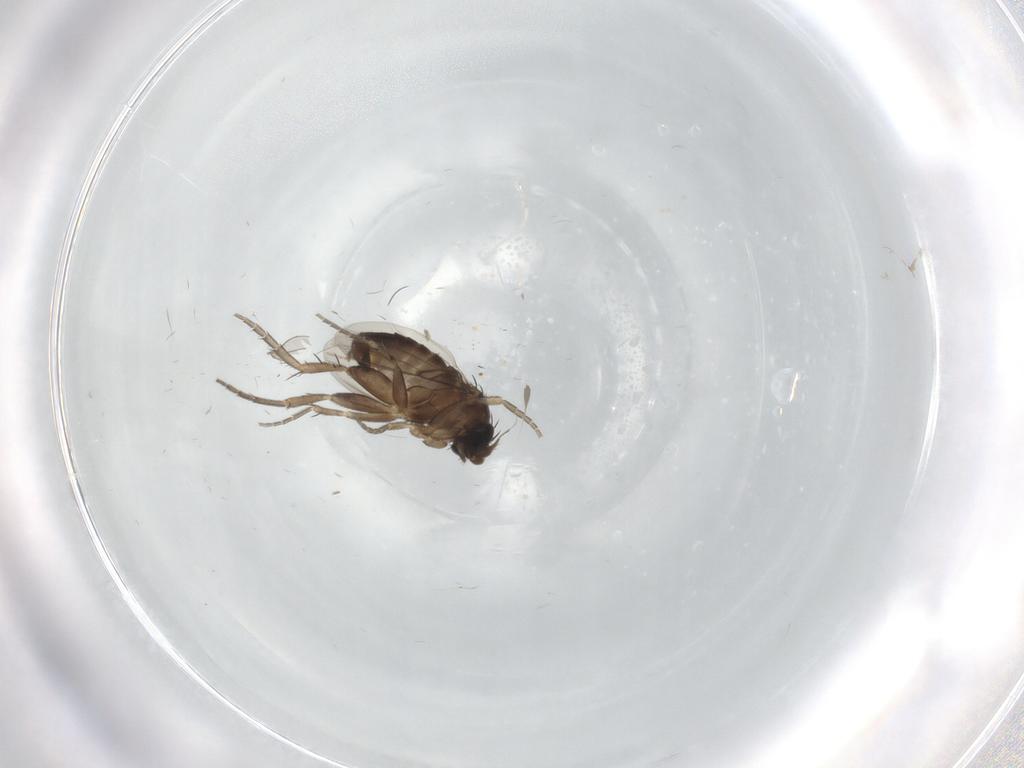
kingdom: Animalia
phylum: Arthropoda
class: Insecta
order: Diptera
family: Phoridae
